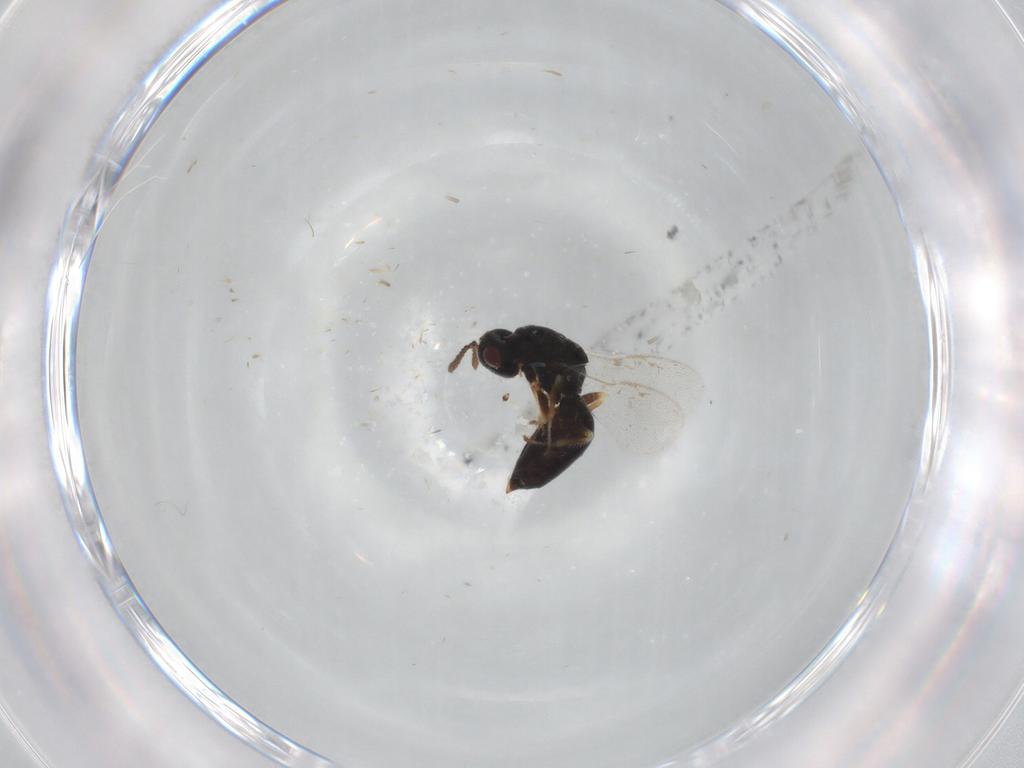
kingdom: Animalia
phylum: Arthropoda
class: Insecta
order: Hymenoptera
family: Eurytomidae
